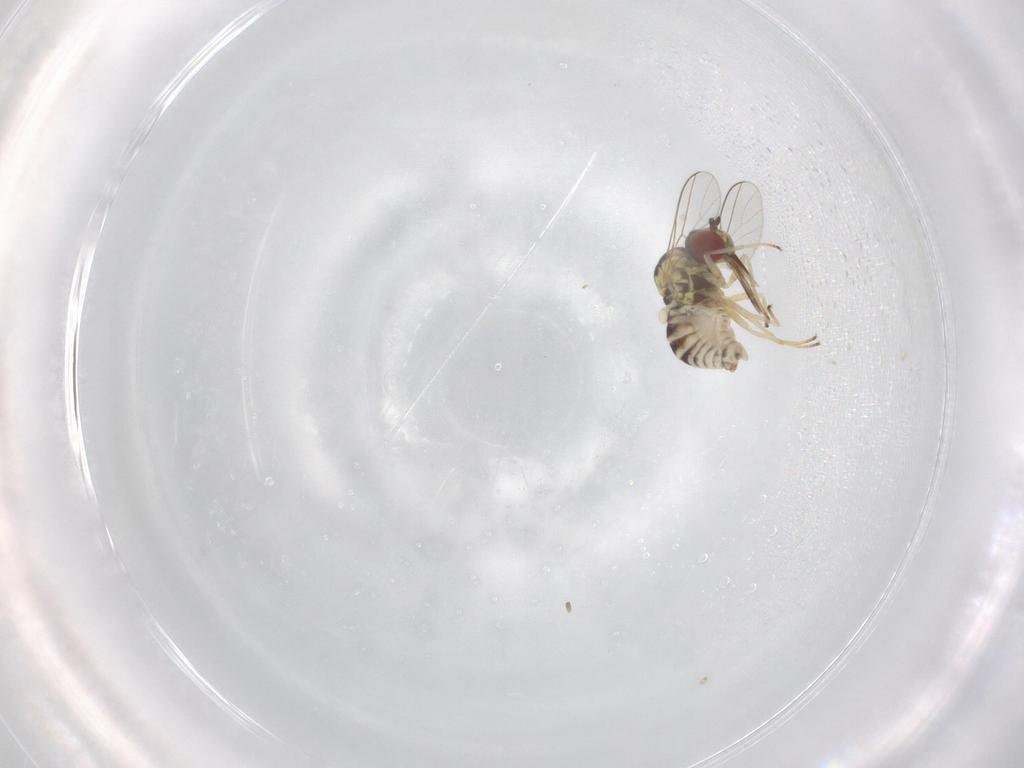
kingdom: Animalia
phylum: Arthropoda
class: Insecta
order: Diptera
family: Bombyliidae
